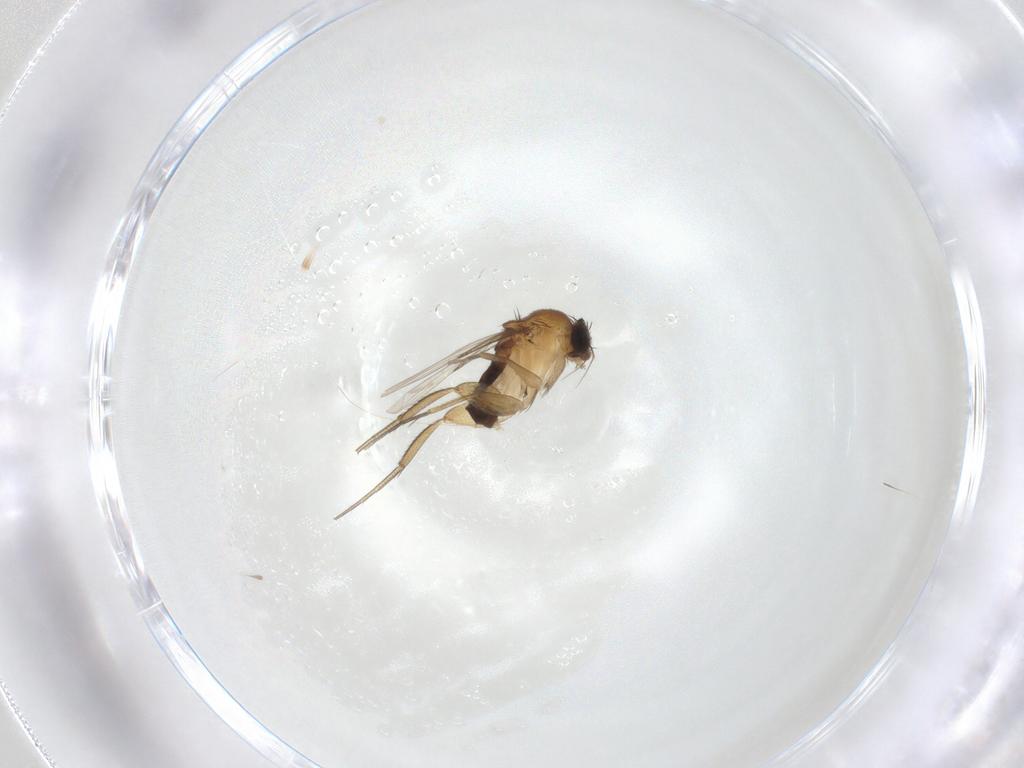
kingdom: Animalia
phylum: Arthropoda
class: Insecta
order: Diptera
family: Phoridae
